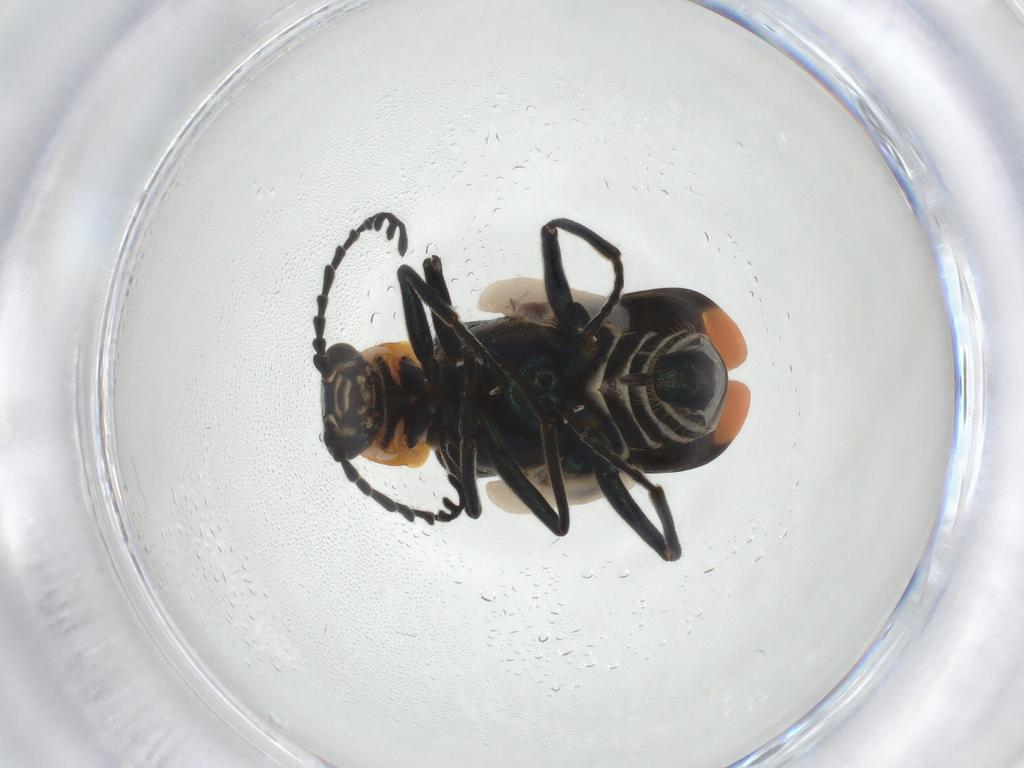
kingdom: Animalia
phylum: Arthropoda
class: Insecta
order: Coleoptera
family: Melyridae
